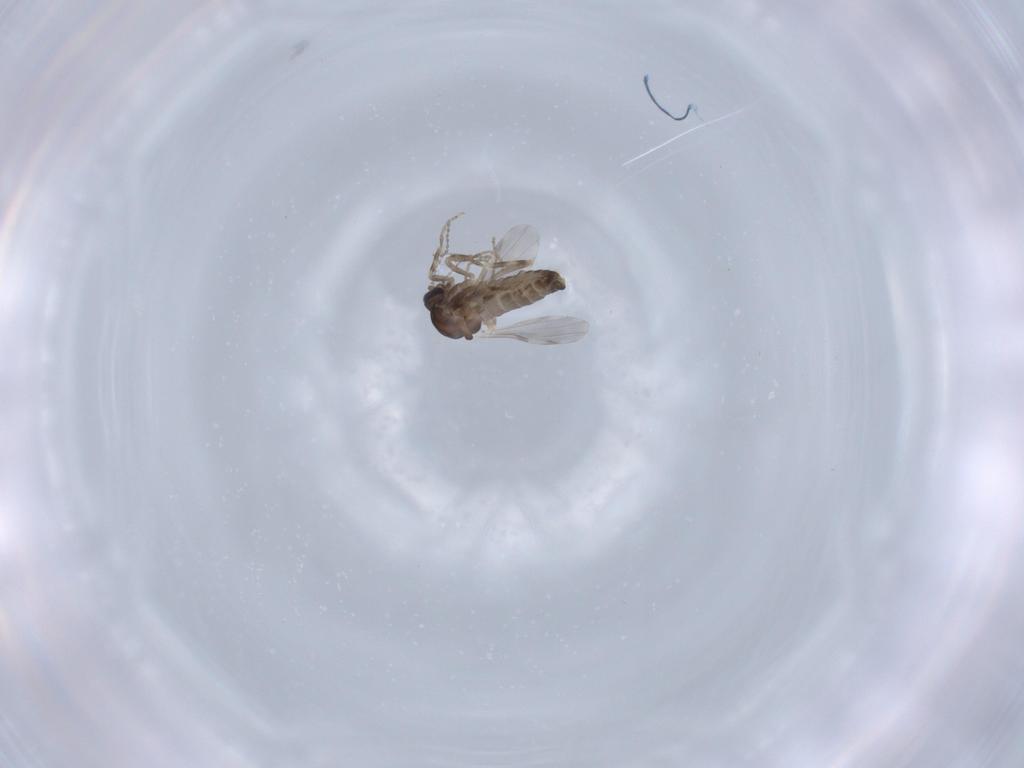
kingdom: Animalia
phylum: Arthropoda
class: Insecta
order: Diptera
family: Ceratopogonidae
